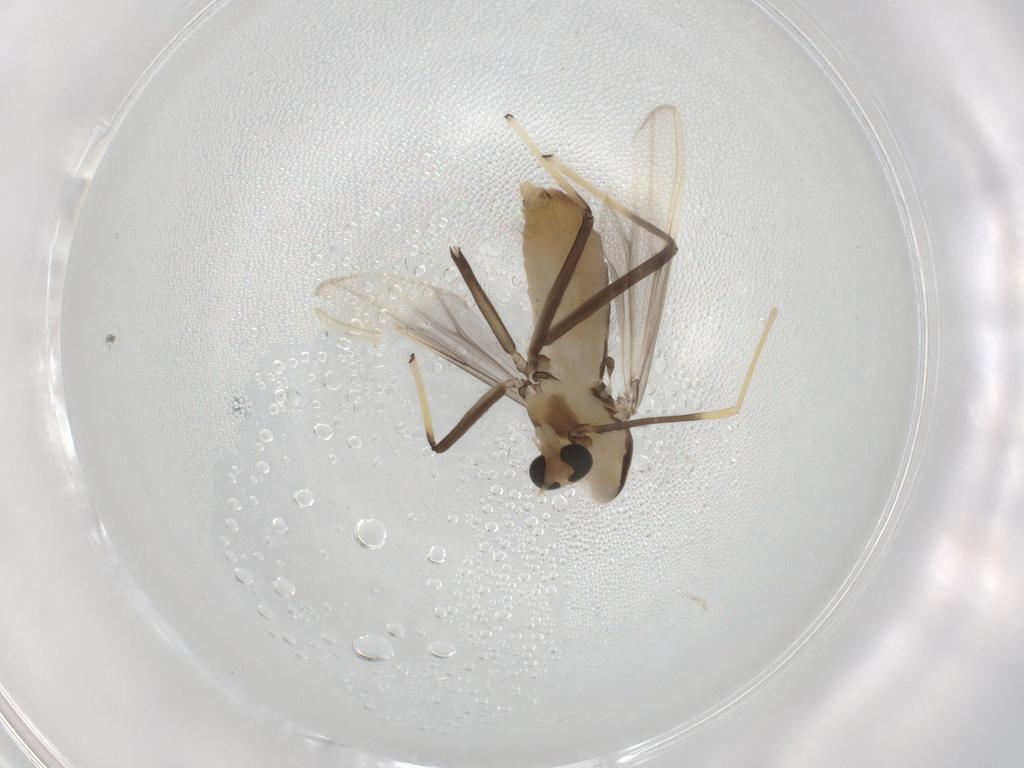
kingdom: Animalia
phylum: Arthropoda
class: Insecta
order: Diptera
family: Chironomidae
